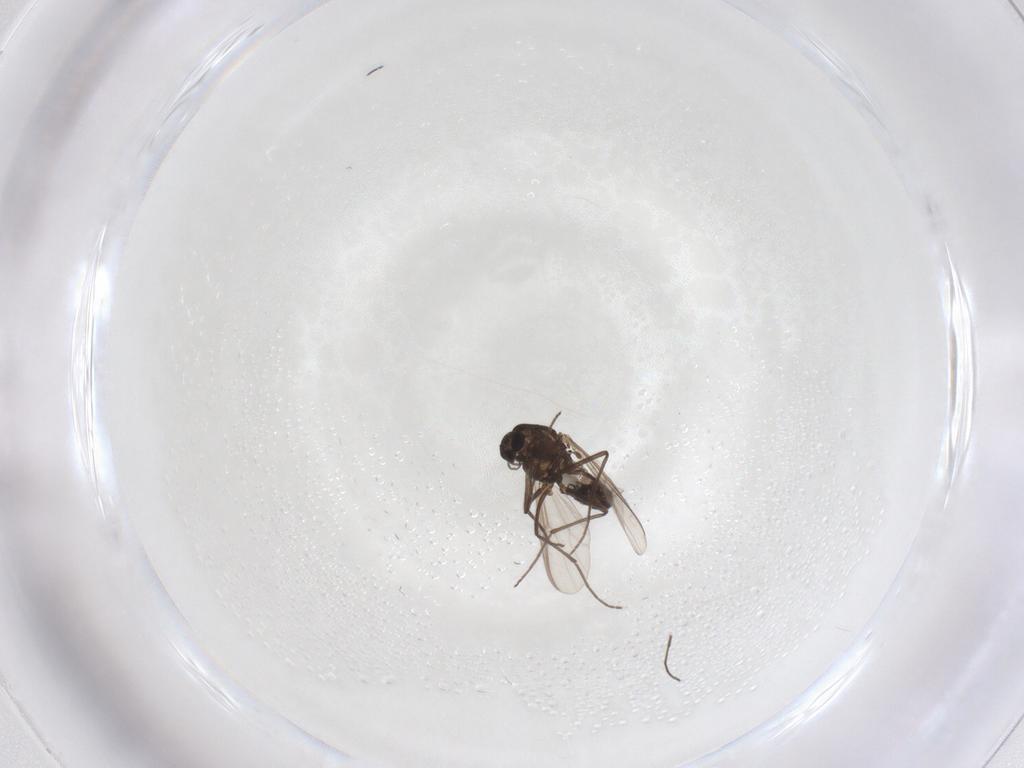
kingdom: Animalia
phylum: Arthropoda
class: Insecta
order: Diptera
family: Chironomidae
